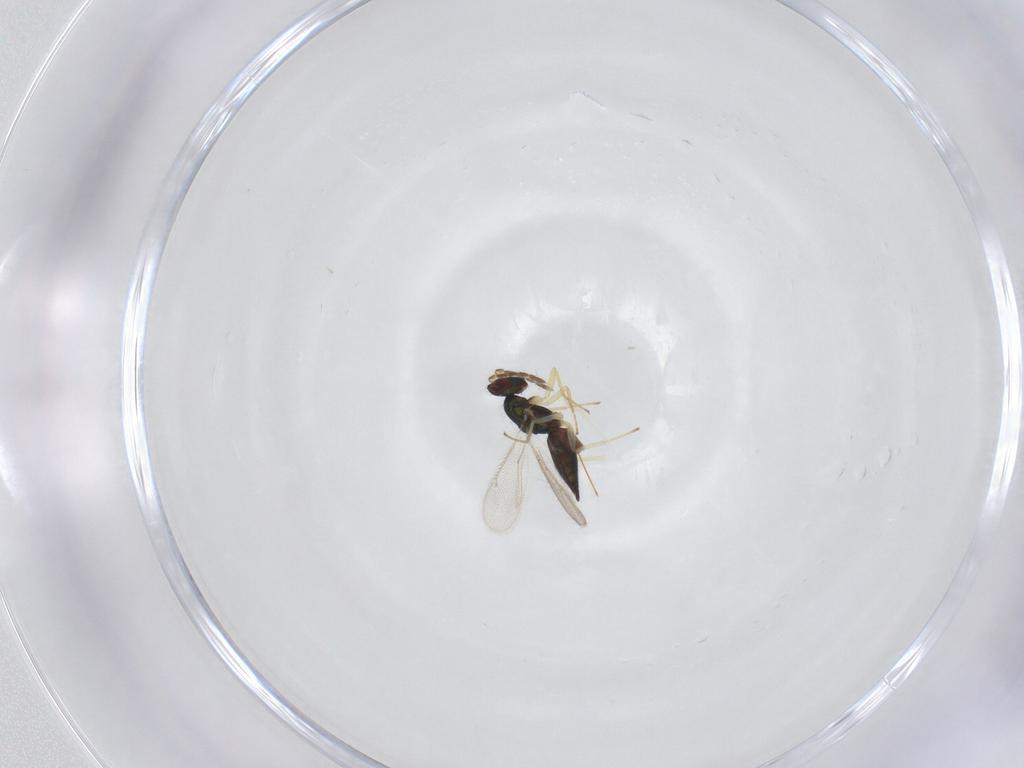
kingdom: Animalia
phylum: Arthropoda
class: Insecta
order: Hymenoptera
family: Eulophidae
